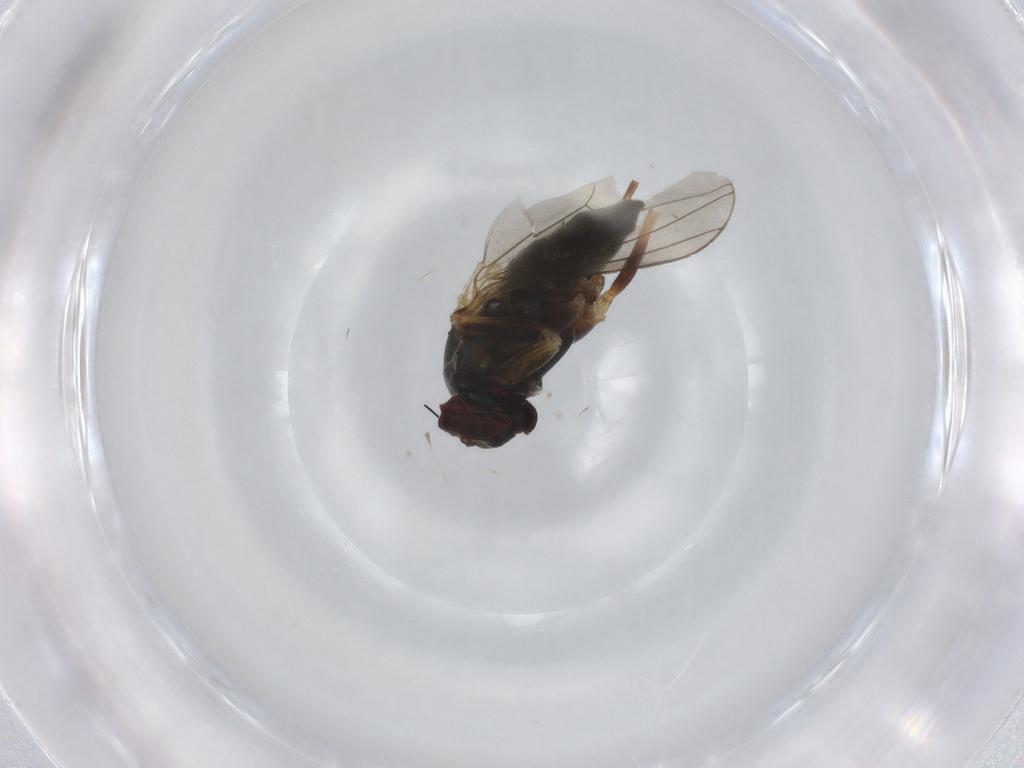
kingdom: Animalia
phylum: Arthropoda
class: Insecta
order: Diptera
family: Dolichopodidae
